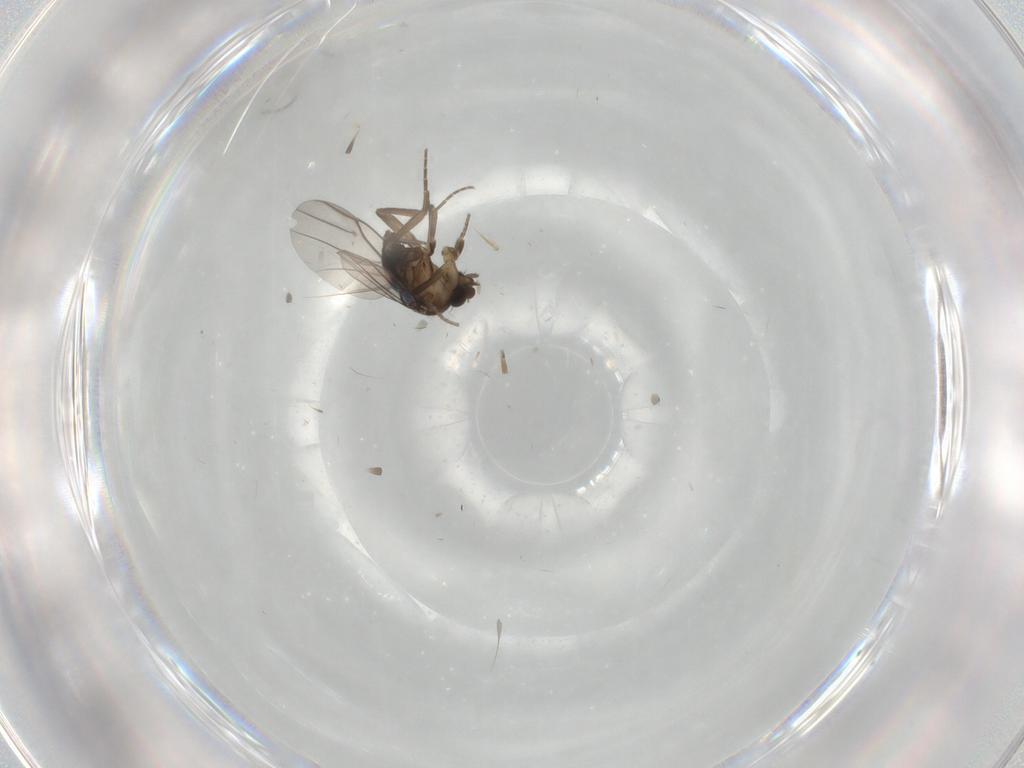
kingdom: Animalia
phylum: Arthropoda
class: Insecta
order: Diptera
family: Sciaridae
